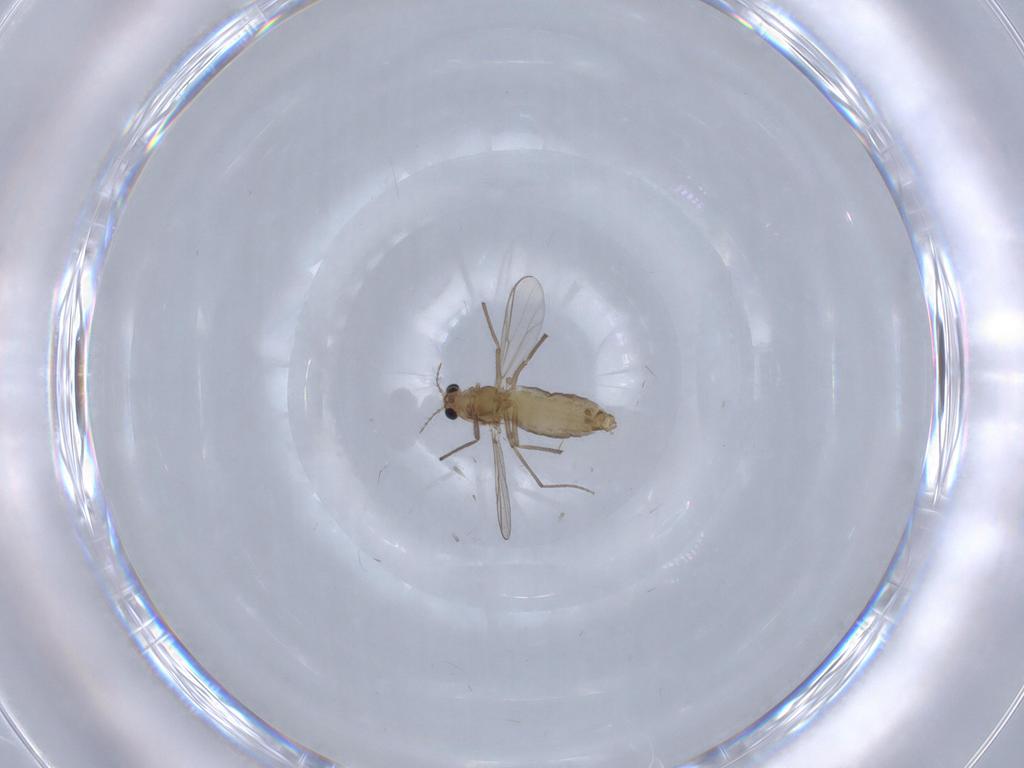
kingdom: Animalia
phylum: Arthropoda
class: Insecta
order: Diptera
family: Chironomidae
